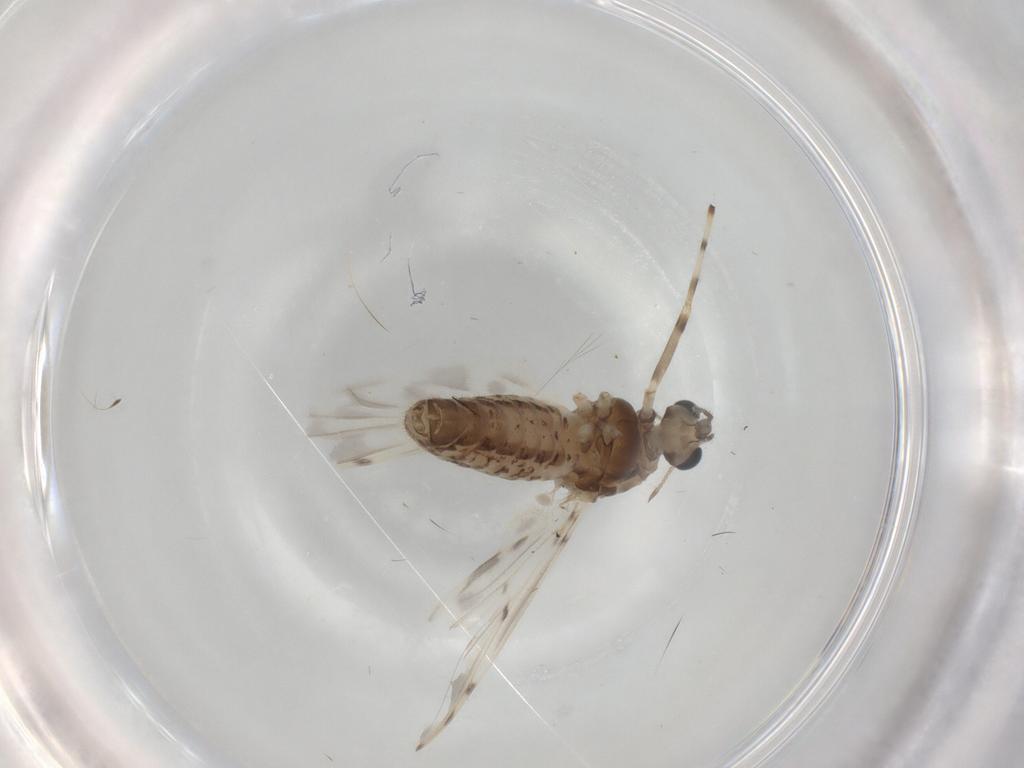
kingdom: Animalia
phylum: Arthropoda
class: Insecta
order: Diptera
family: Chironomidae
